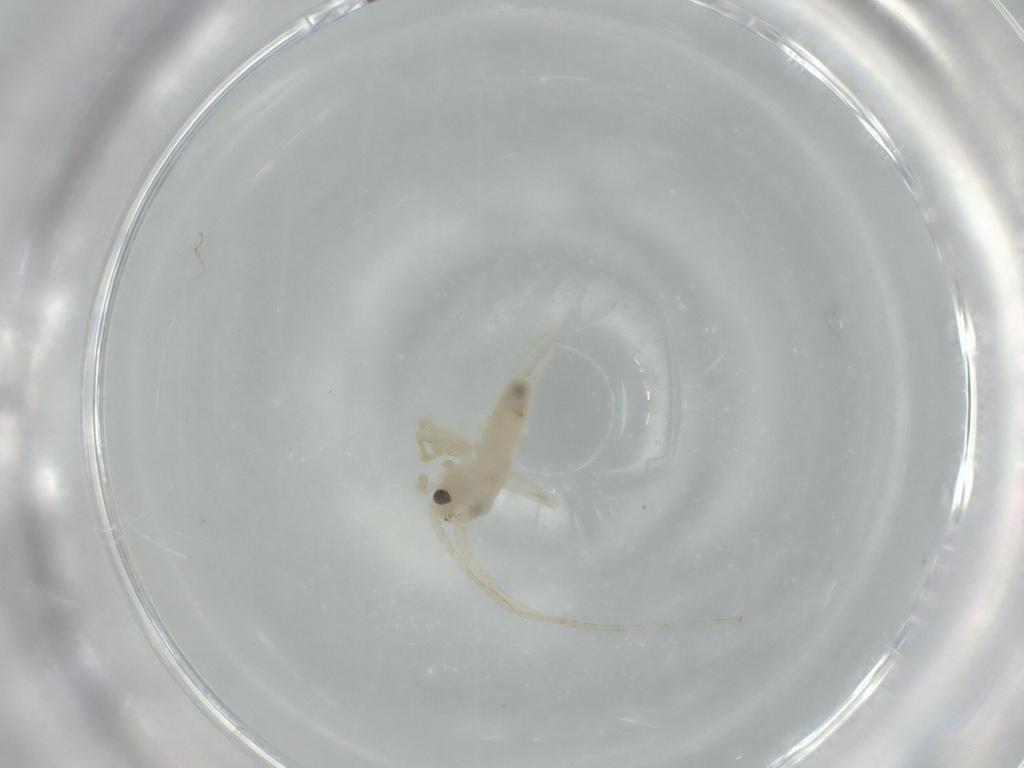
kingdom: Animalia
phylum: Arthropoda
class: Insecta
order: Orthoptera
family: Trigonidiidae
